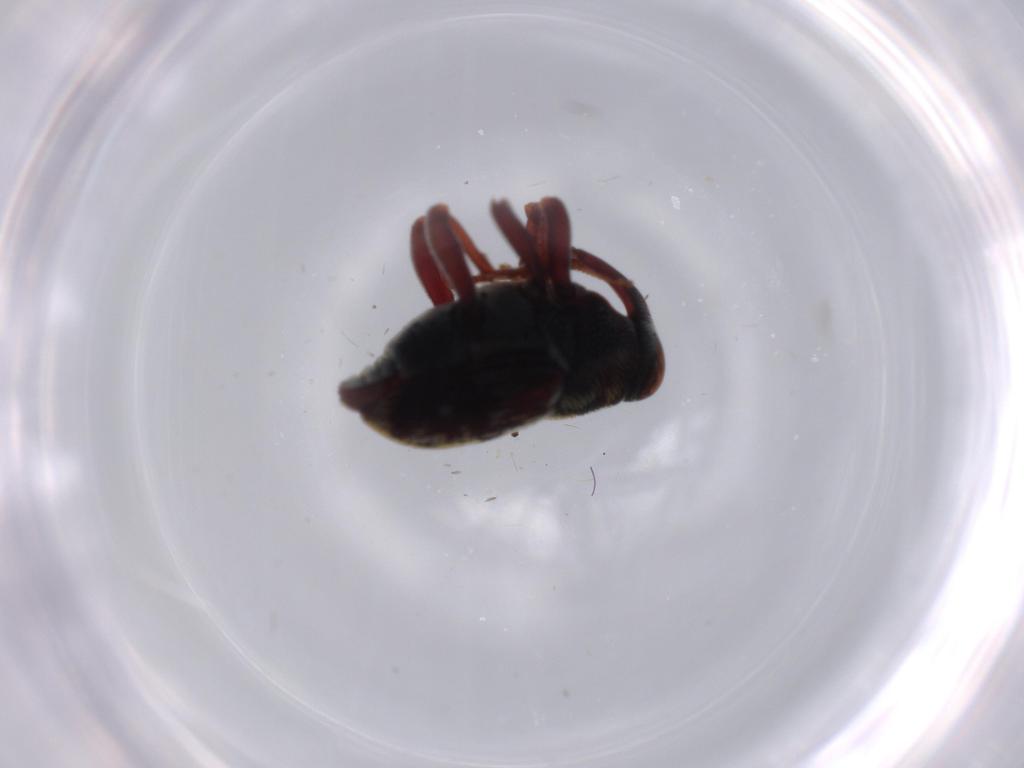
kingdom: Animalia
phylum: Arthropoda
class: Insecta
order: Coleoptera
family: Curculionidae
